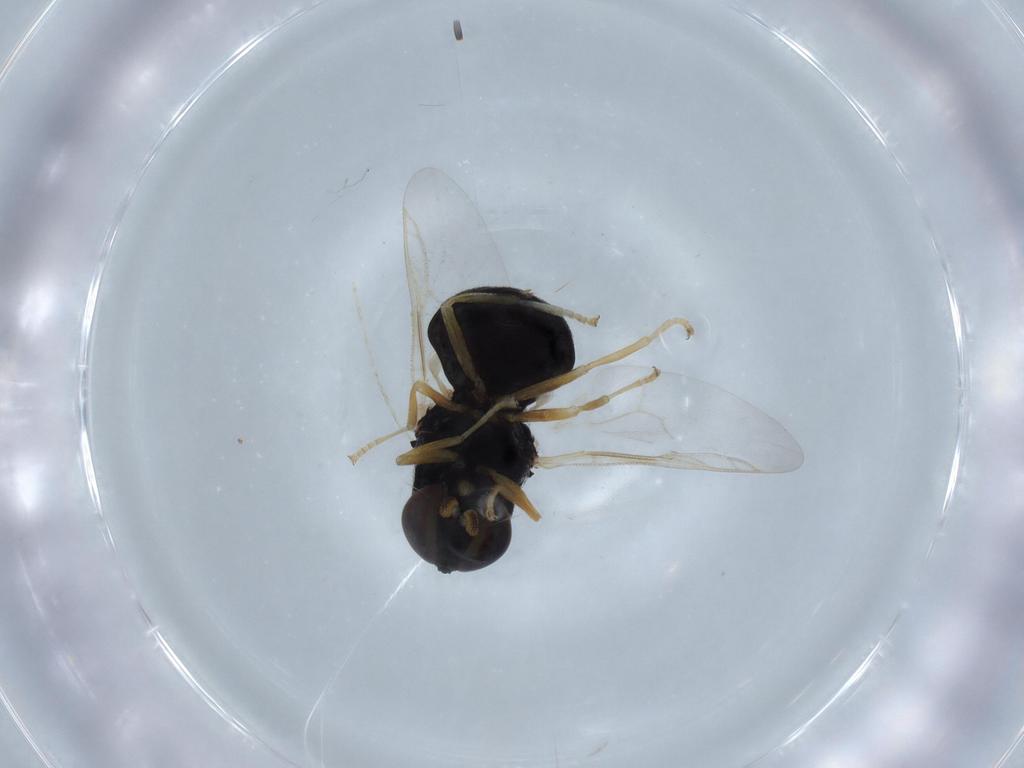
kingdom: Animalia
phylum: Arthropoda
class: Insecta
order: Diptera
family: Stratiomyidae
